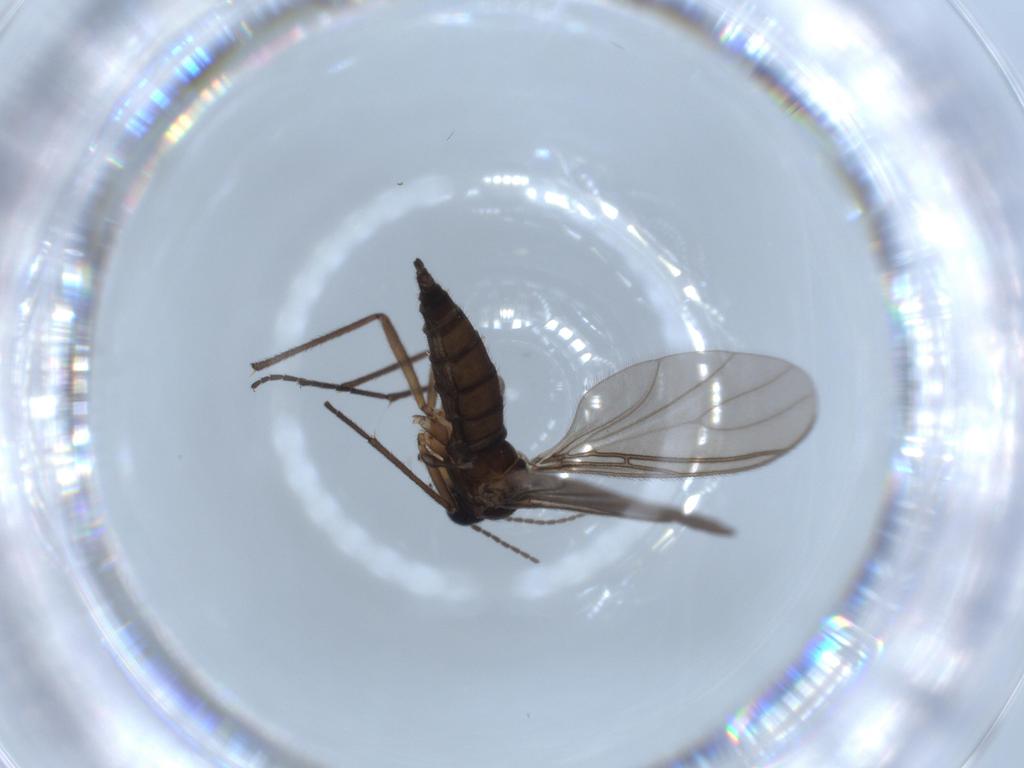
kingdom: Animalia
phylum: Arthropoda
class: Insecta
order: Diptera
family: Sciaridae
